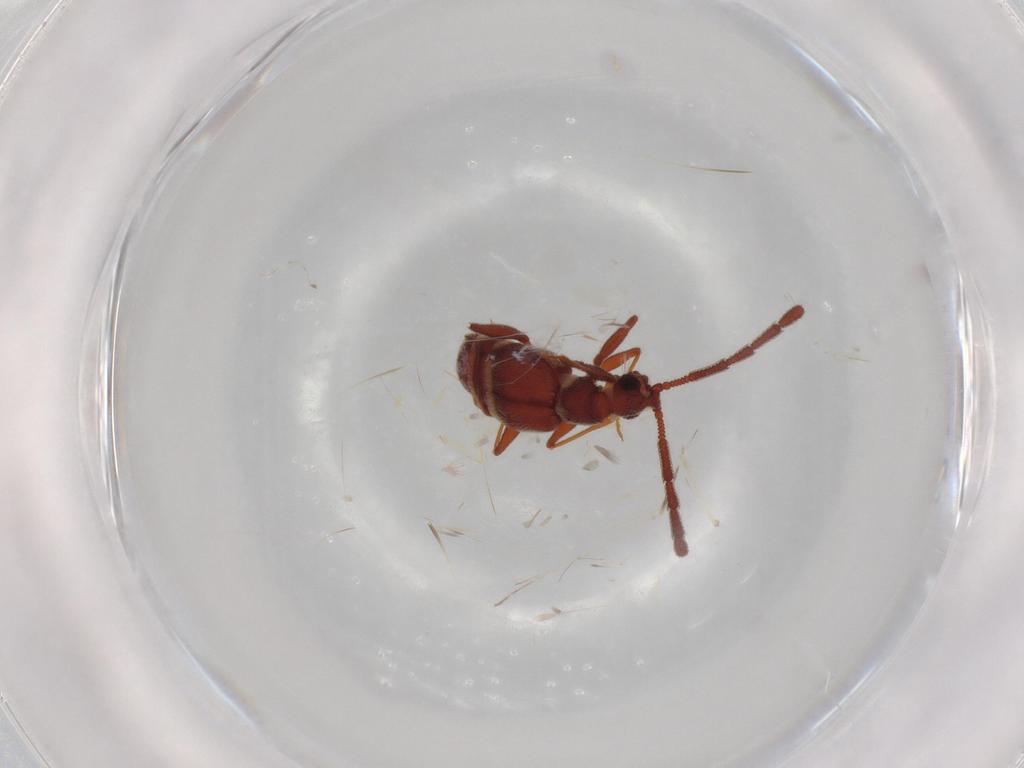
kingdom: Animalia
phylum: Arthropoda
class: Insecta
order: Coleoptera
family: Staphylinidae
